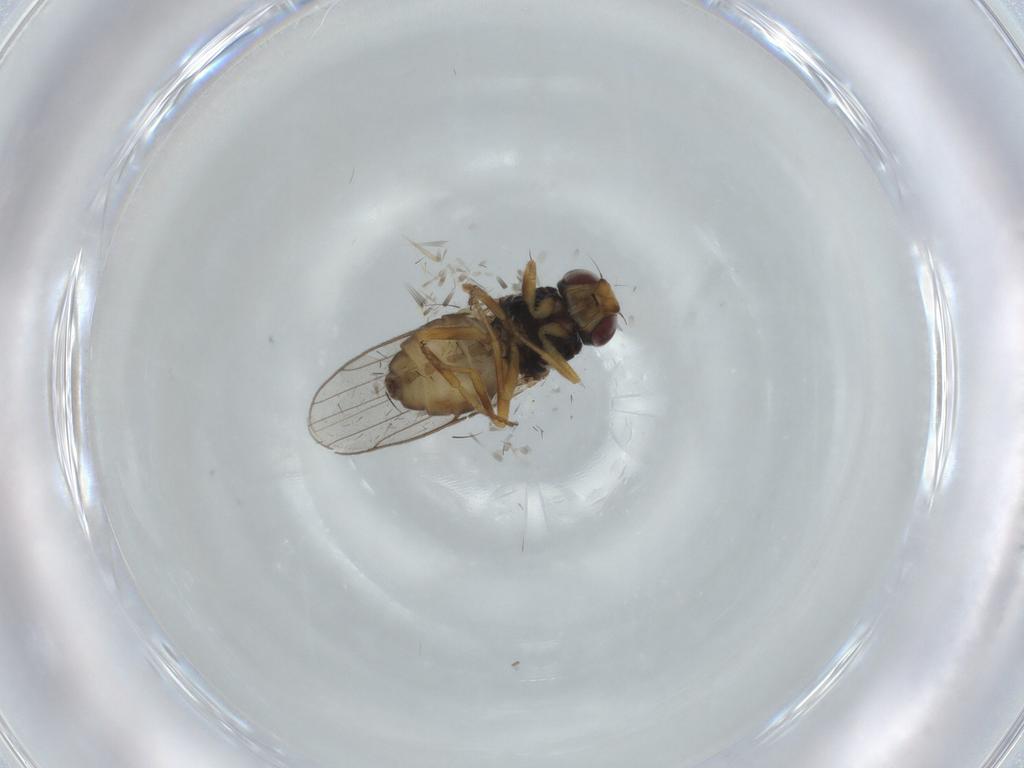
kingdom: Animalia
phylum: Arthropoda
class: Insecta
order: Diptera
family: Chloropidae
